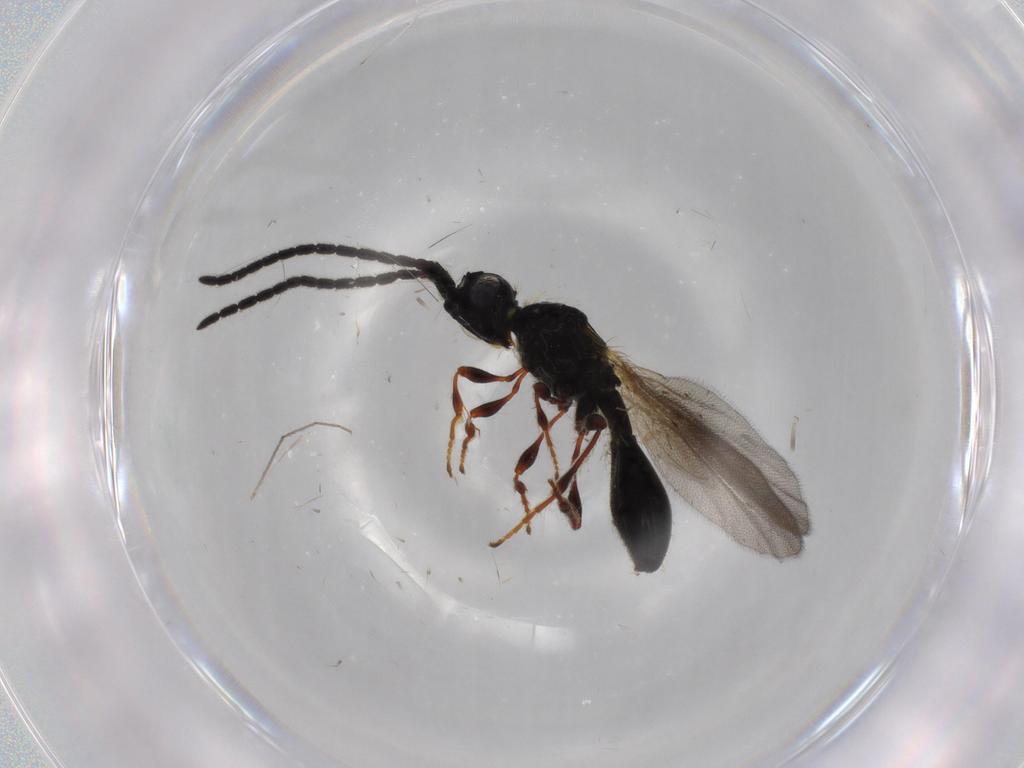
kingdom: Animalia
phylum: Arthropoda
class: Insecta
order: Hymenoptera
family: Diapriidae
